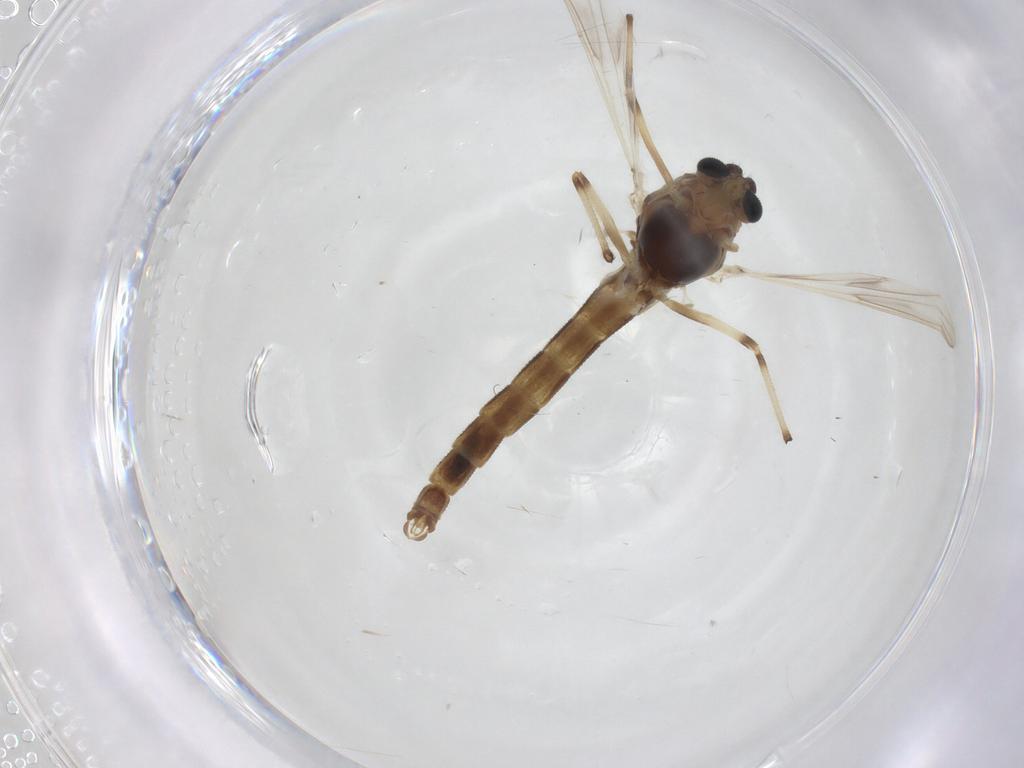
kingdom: Animalia
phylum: Arthropoda
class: Insecta
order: Diptera
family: Chironomidae
